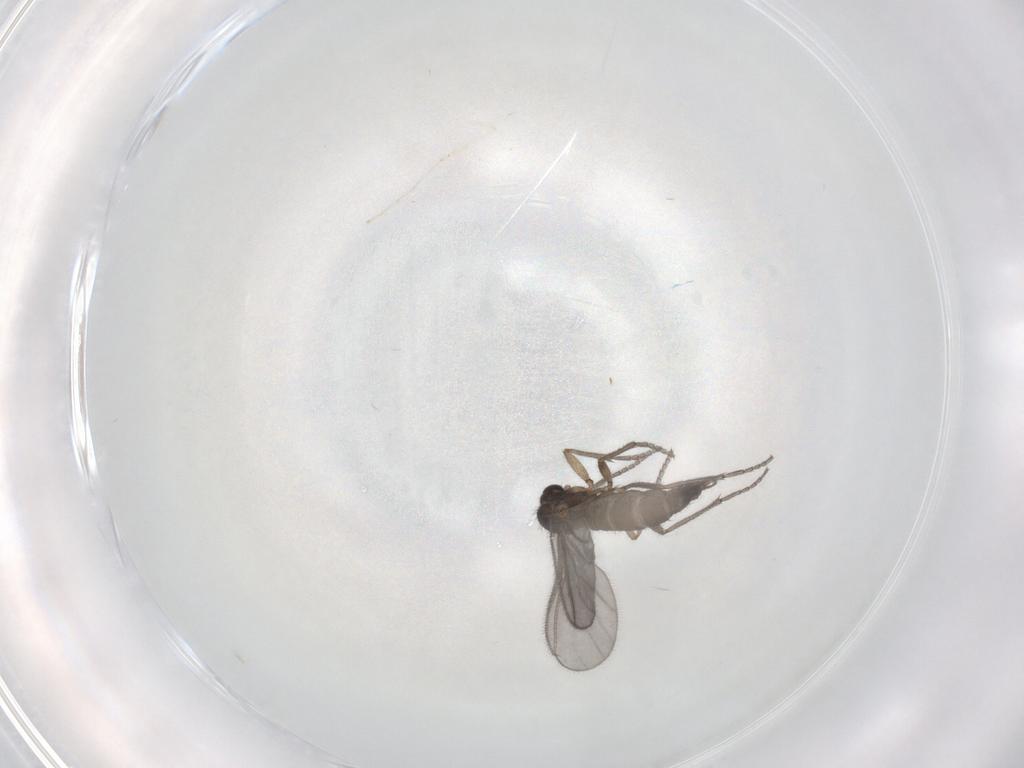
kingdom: Animalia
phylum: Arthropoda
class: Insecta
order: Diptera
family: Sciaridae
